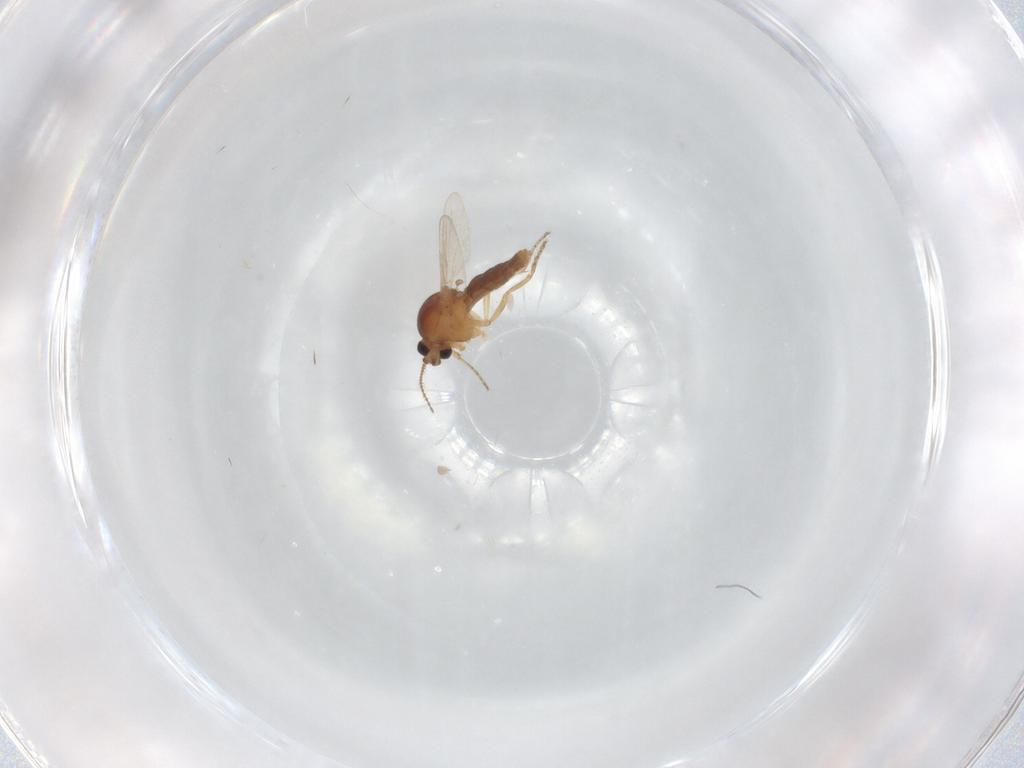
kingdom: Animalia
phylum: Arthropoda
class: Insecta
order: Diptera
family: Ceratopogonidae
